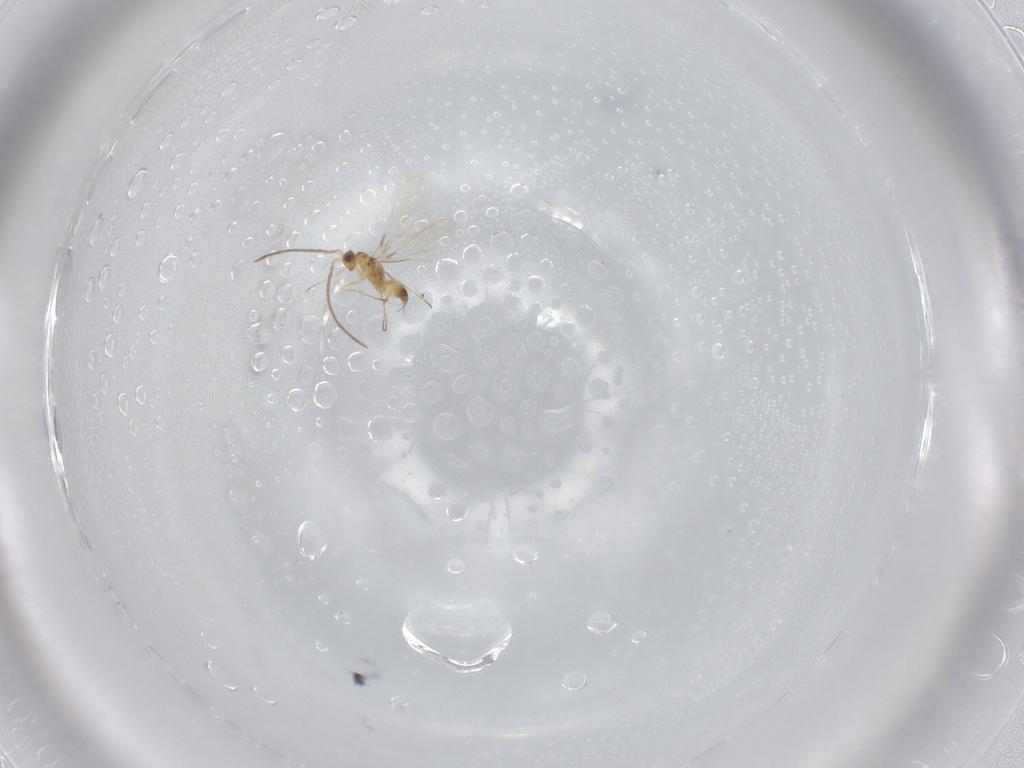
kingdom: Animalia
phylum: Arthropoda
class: Insecta
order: Hymenoptera
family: Mymaridae
